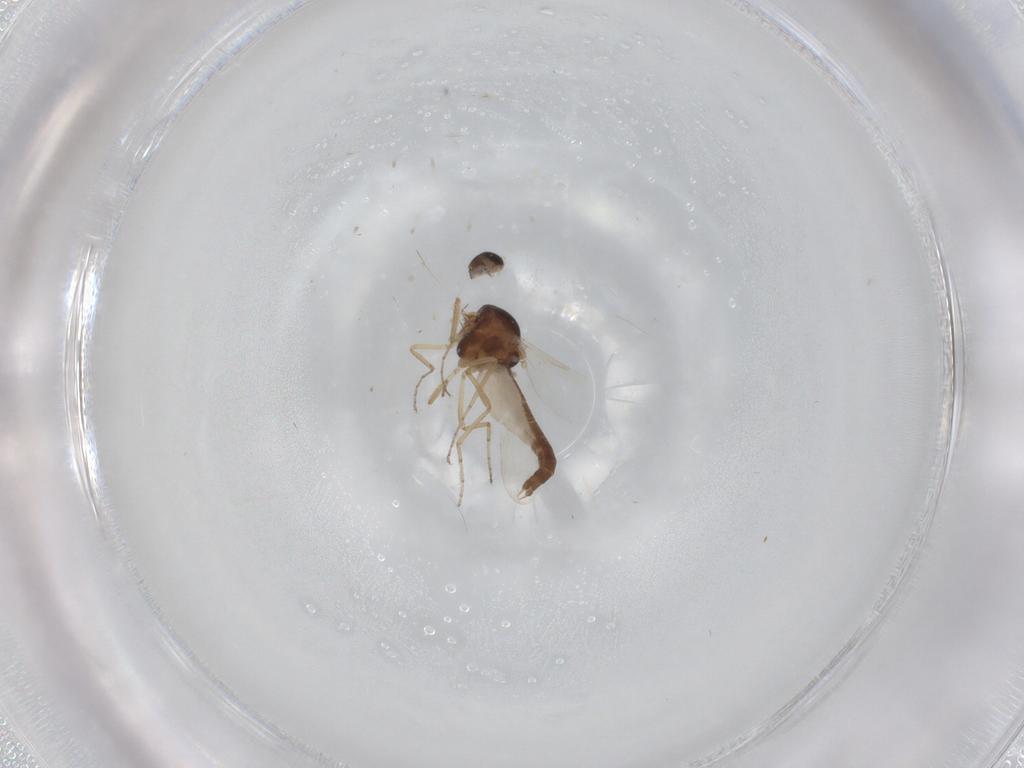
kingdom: Animalia
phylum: Arthropoda
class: Insecta
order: Diptera
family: Ceratopogonidae
